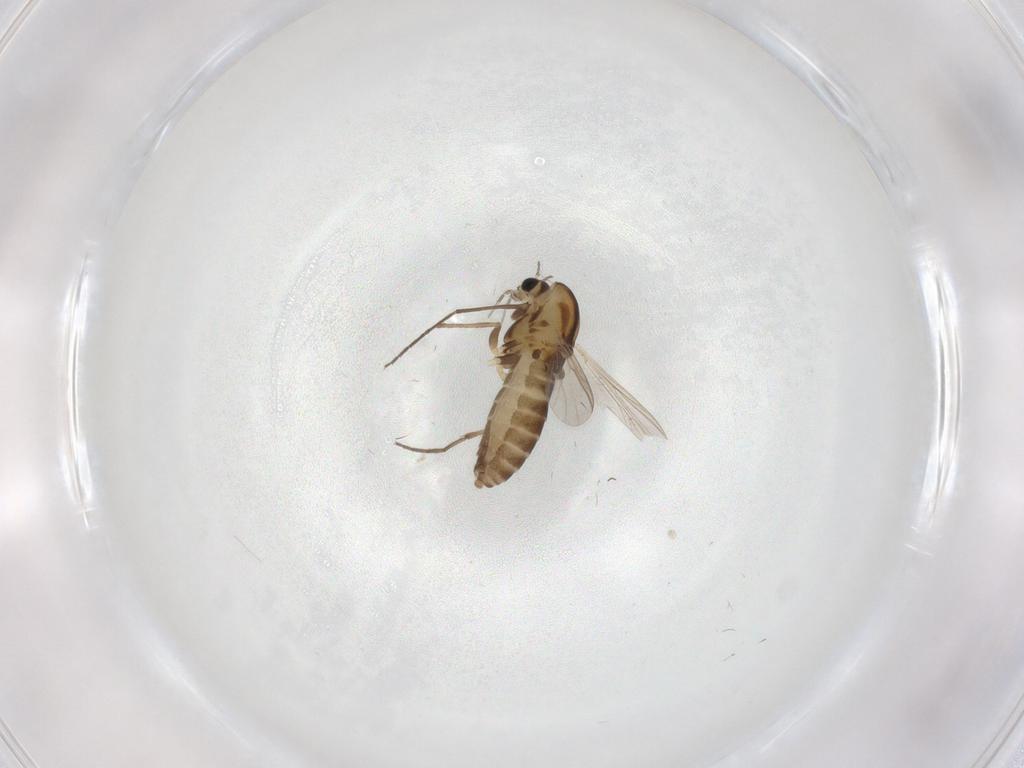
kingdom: Animalia
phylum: Arthropoda
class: Insecta
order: Diptera
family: Chironomidae
